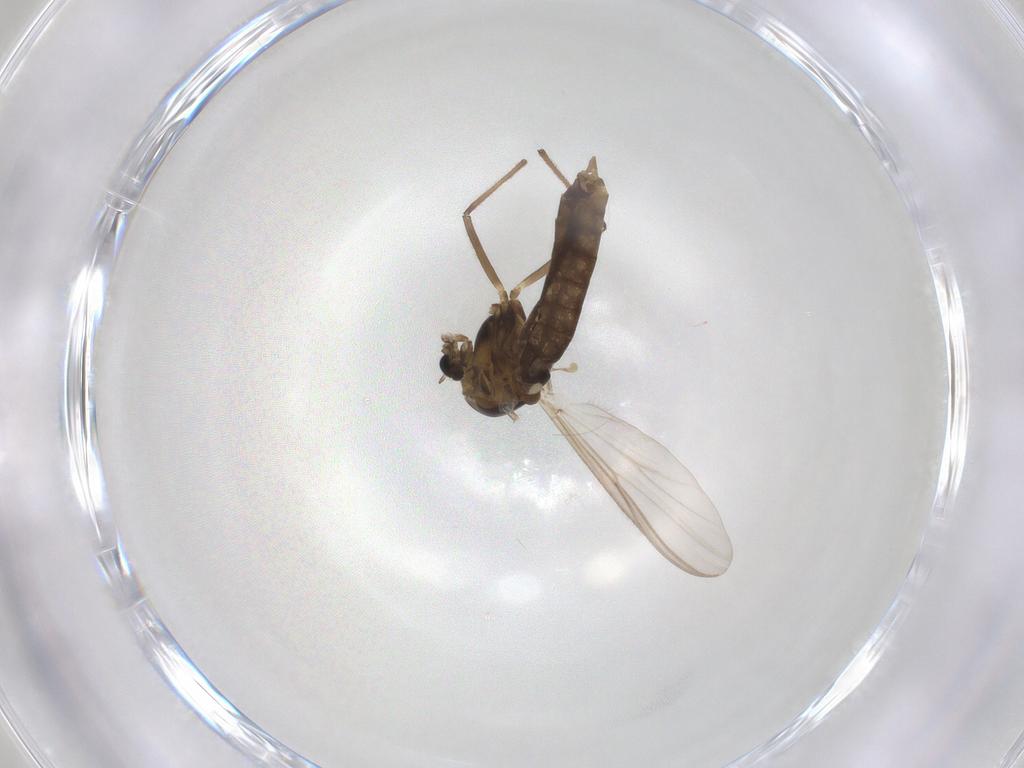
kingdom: Animalia
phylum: Arthropoda
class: Insecta
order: Diptera
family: Chironomidae
